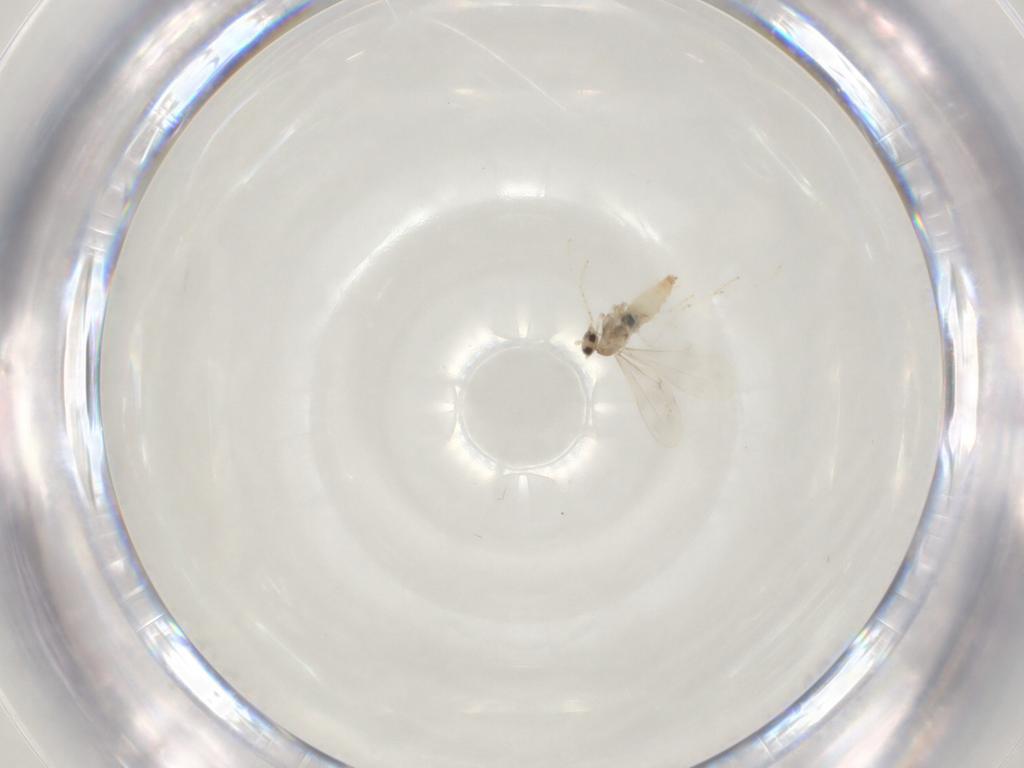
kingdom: Animalia
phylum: Arthropoda
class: Insecta
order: Diptera
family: Cecidomyiidae
